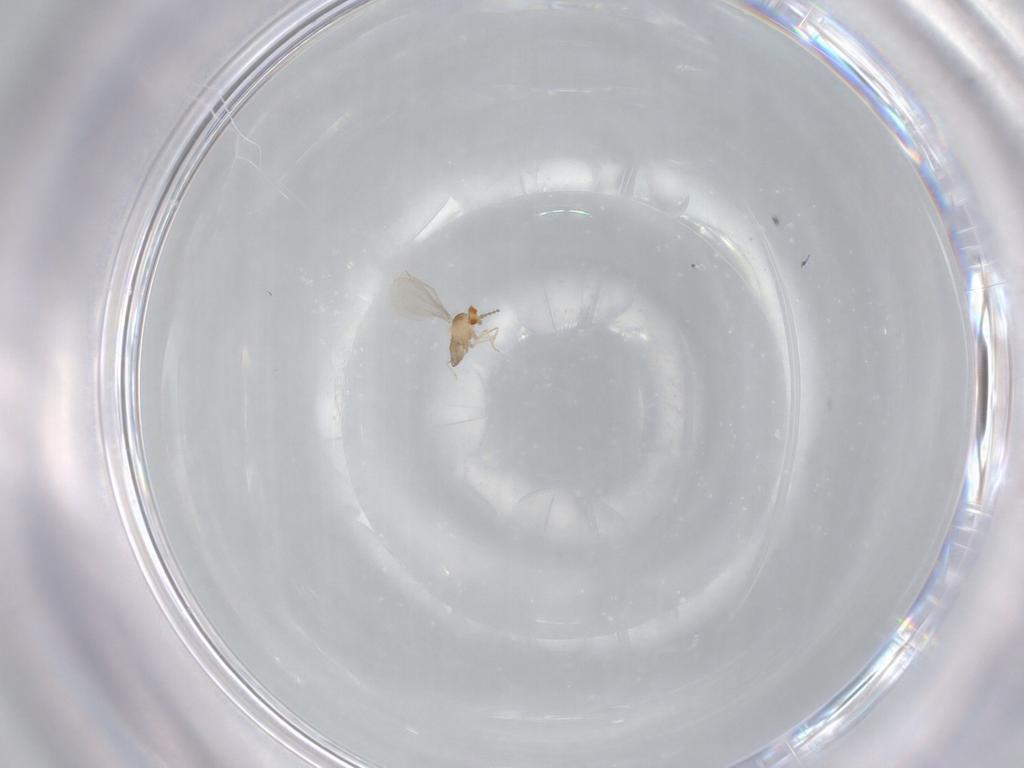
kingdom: Animalia
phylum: Arthropoda
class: Insecta
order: Diptera
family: Cecidomyiidae
